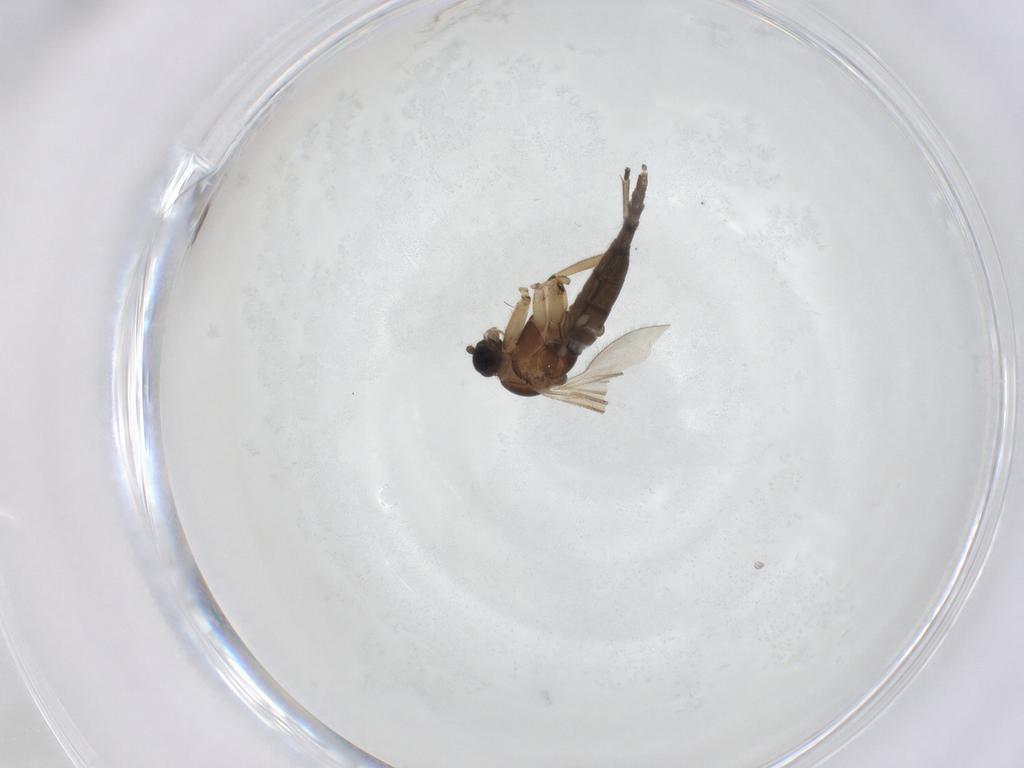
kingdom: Animalia
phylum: Arthropoda
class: Insecta
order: Diptera
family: Sciaridae
